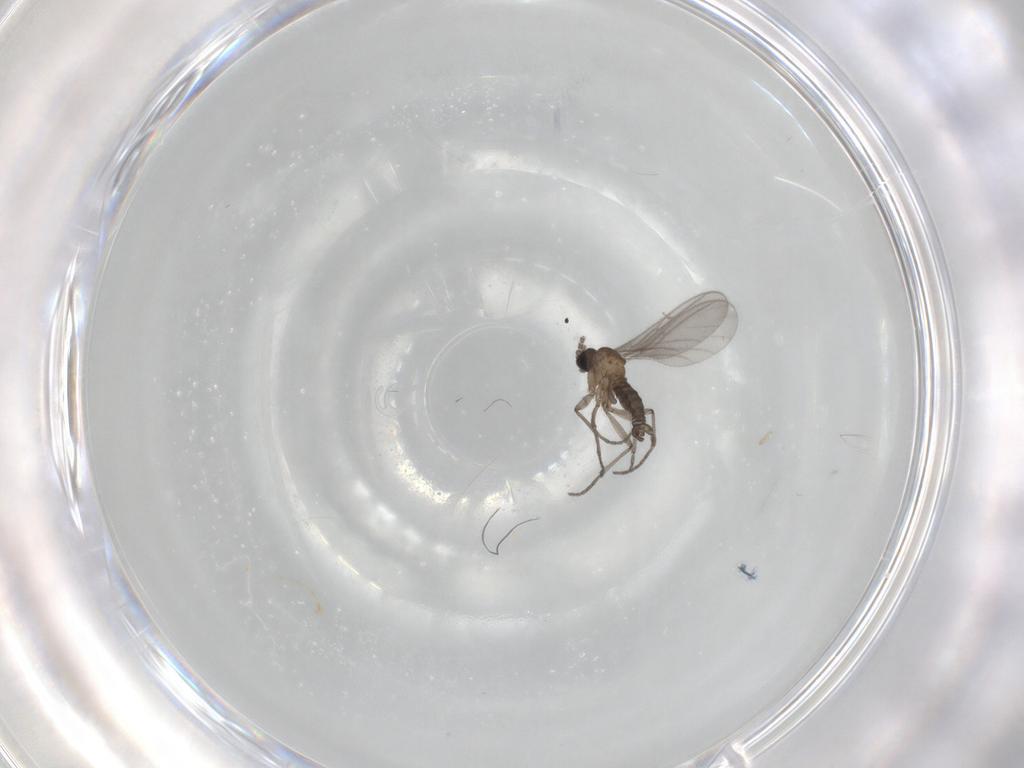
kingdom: Animalia
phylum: Arthropoda
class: Insecta
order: Diptera
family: Sciaridae
